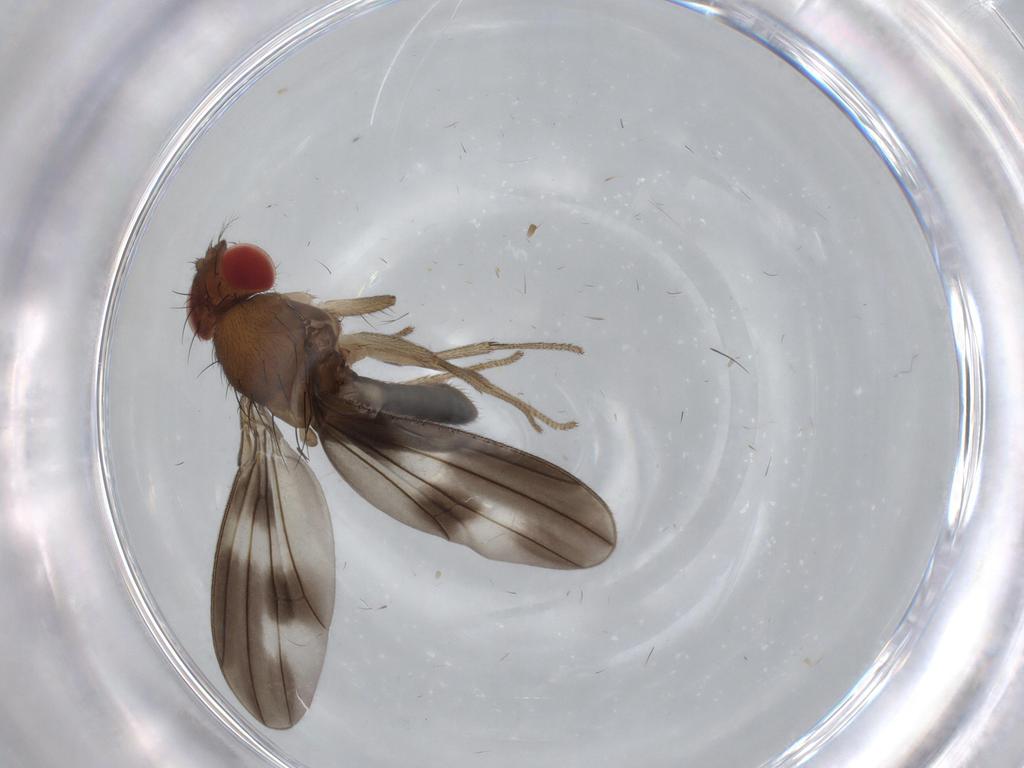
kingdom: Animalia
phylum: Arthropoda
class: Insecta
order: Diptera
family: Drosophilidae
